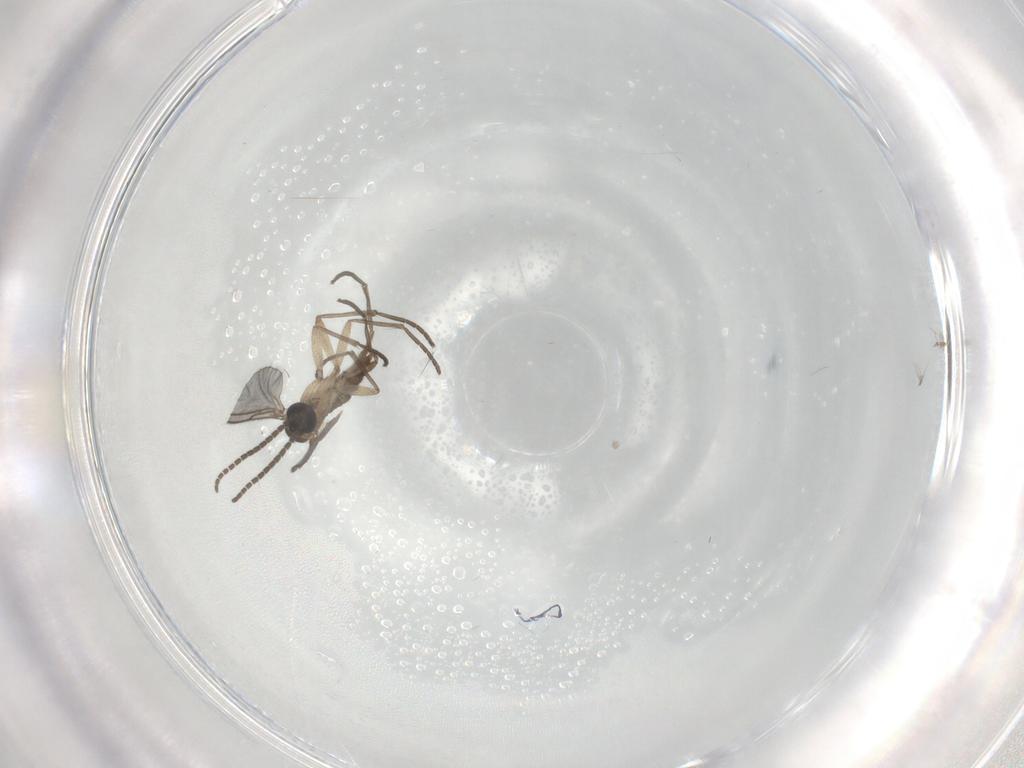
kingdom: Animalia
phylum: Arthropoda
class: Insecta
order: Diptera
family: Sciaridae
